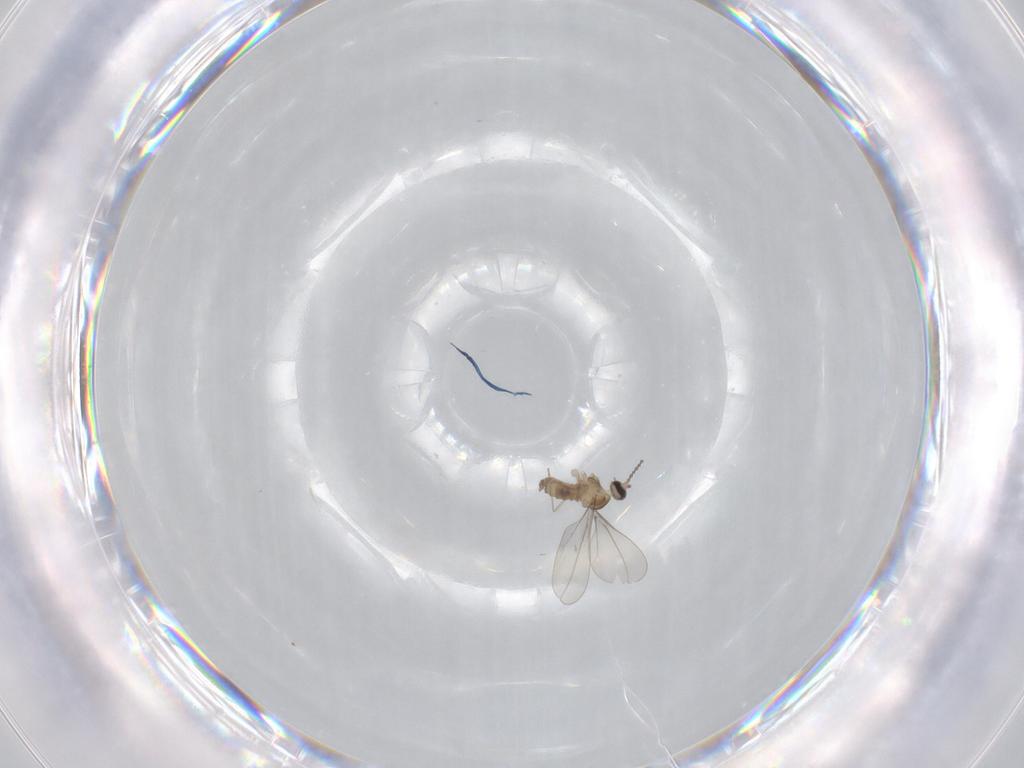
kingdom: Animalia
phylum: Arthropoda
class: Insecta
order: Diptera
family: Cecidomyiidae
